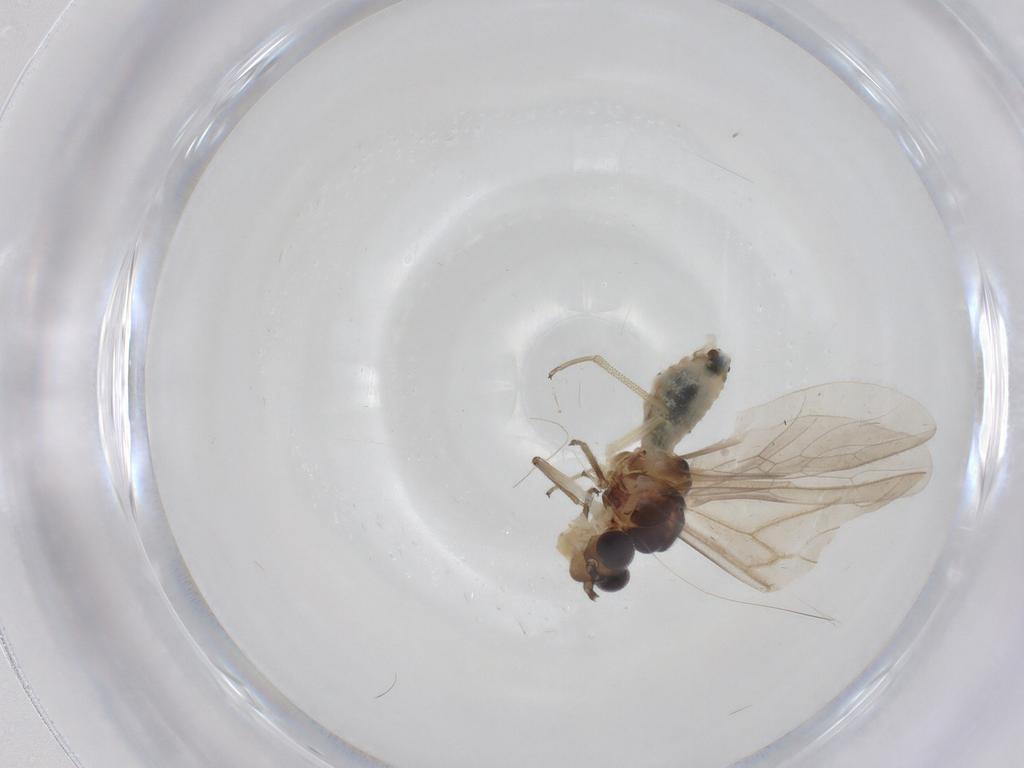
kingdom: Animalia
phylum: Arthropoda
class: Insecta
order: Psocodea
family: Caeciliusidae
